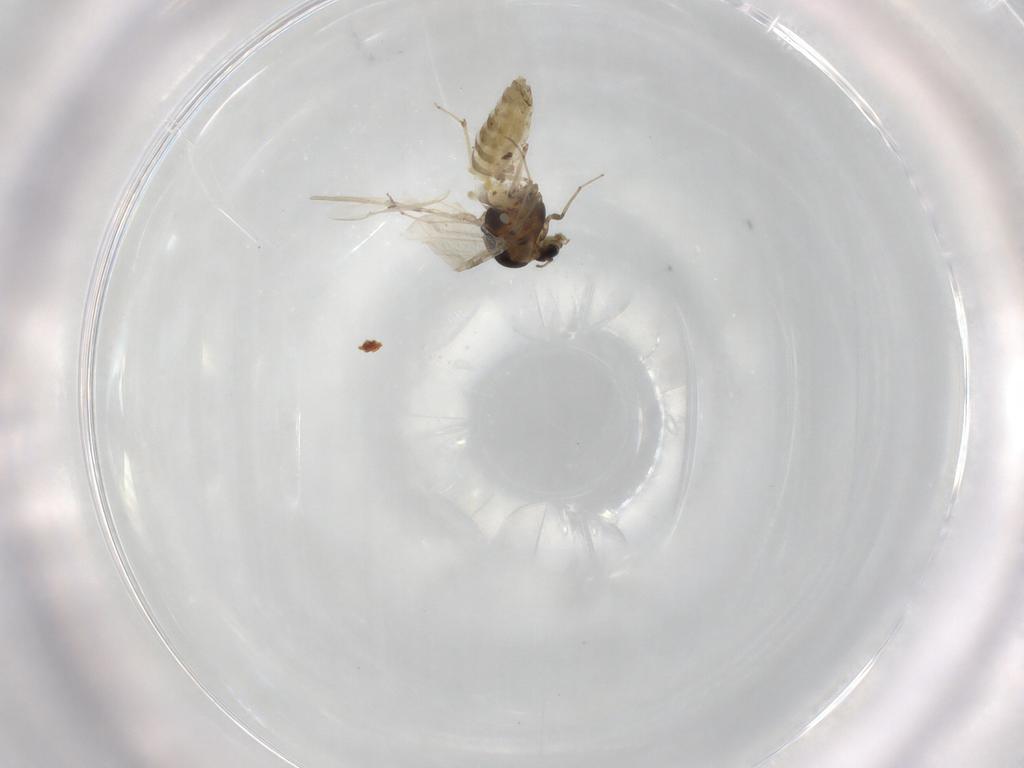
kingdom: Animalia
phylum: Arthropoda
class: Insecta
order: Diptera
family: Chironomidae
